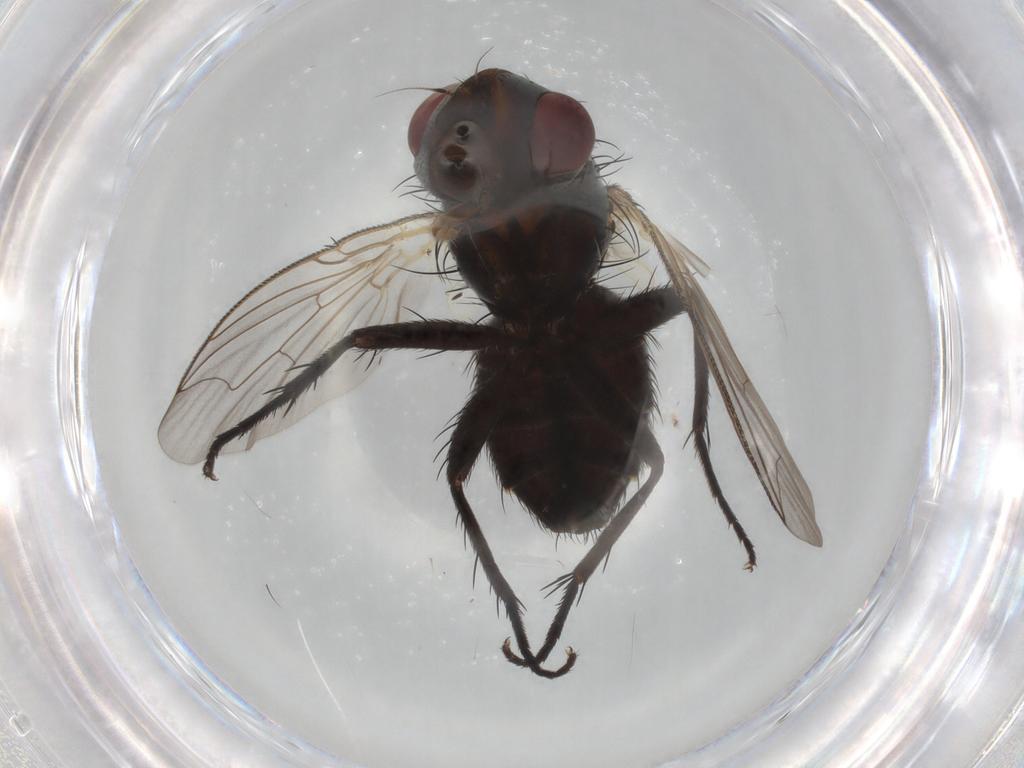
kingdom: Animalia
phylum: Arthropoda
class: Insecta
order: Diptera
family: Sarcophagidae
